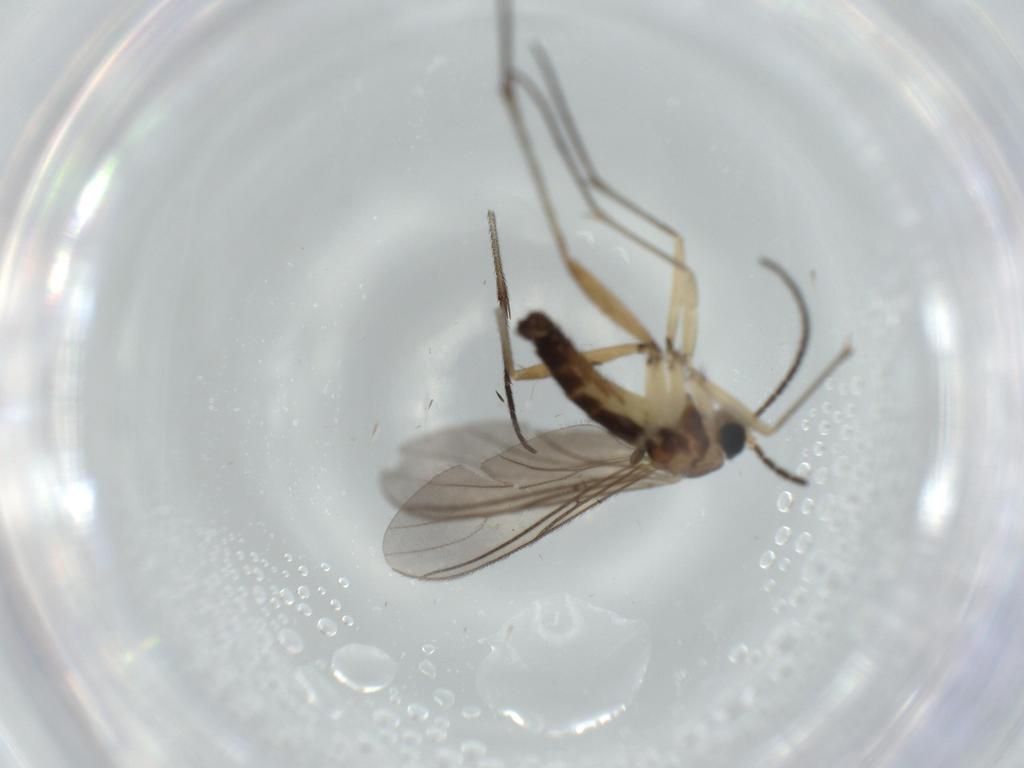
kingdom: Animalia
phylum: Arthropoda
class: Insecta
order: Diptera
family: Sciaridae
